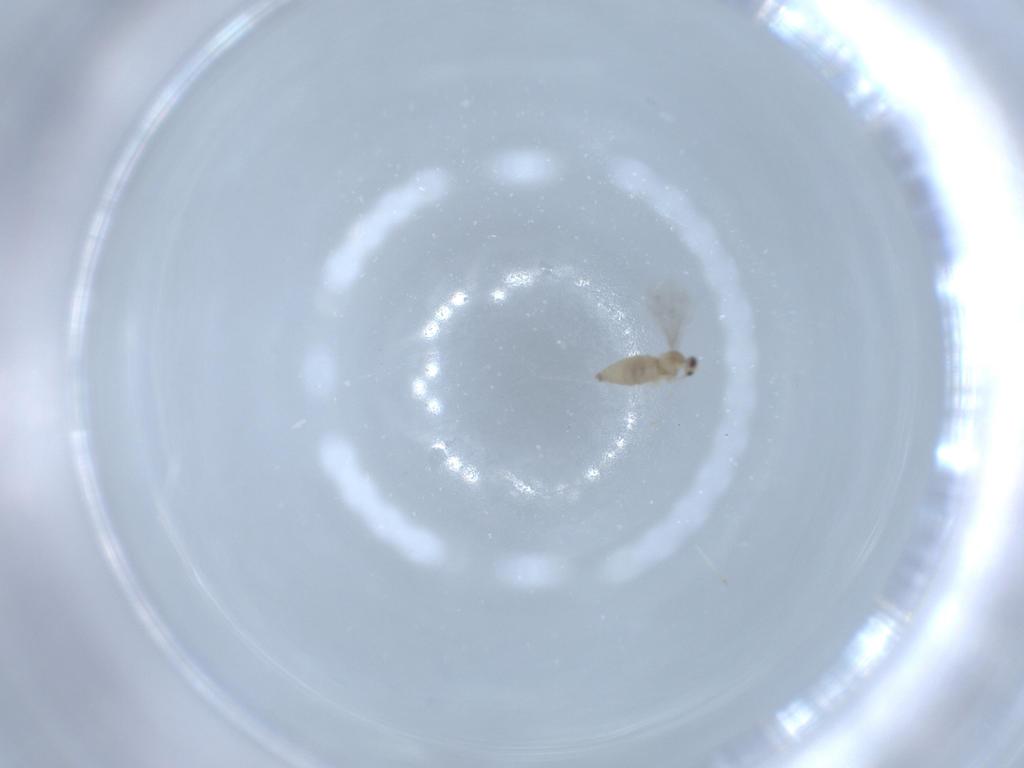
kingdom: Animalia
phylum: Arthropoda
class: Insecta
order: Diptera
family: Cecidomyiidae
